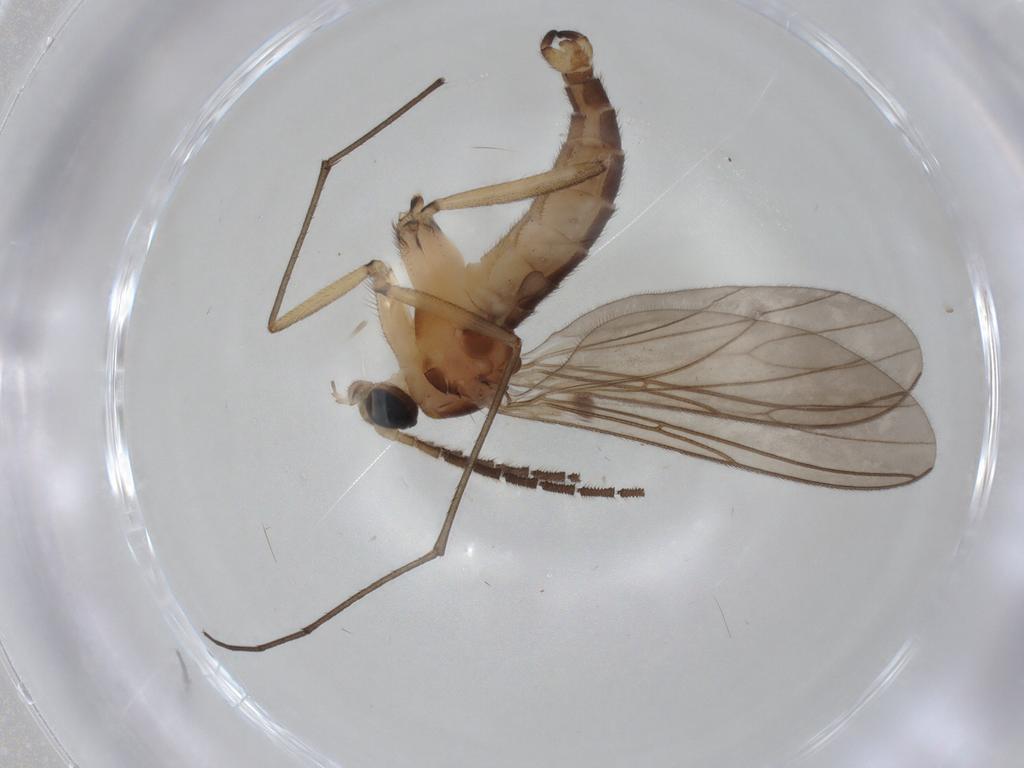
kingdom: Animalia
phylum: Arthropoda
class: Insecta
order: Diptera
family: Sciaridae
